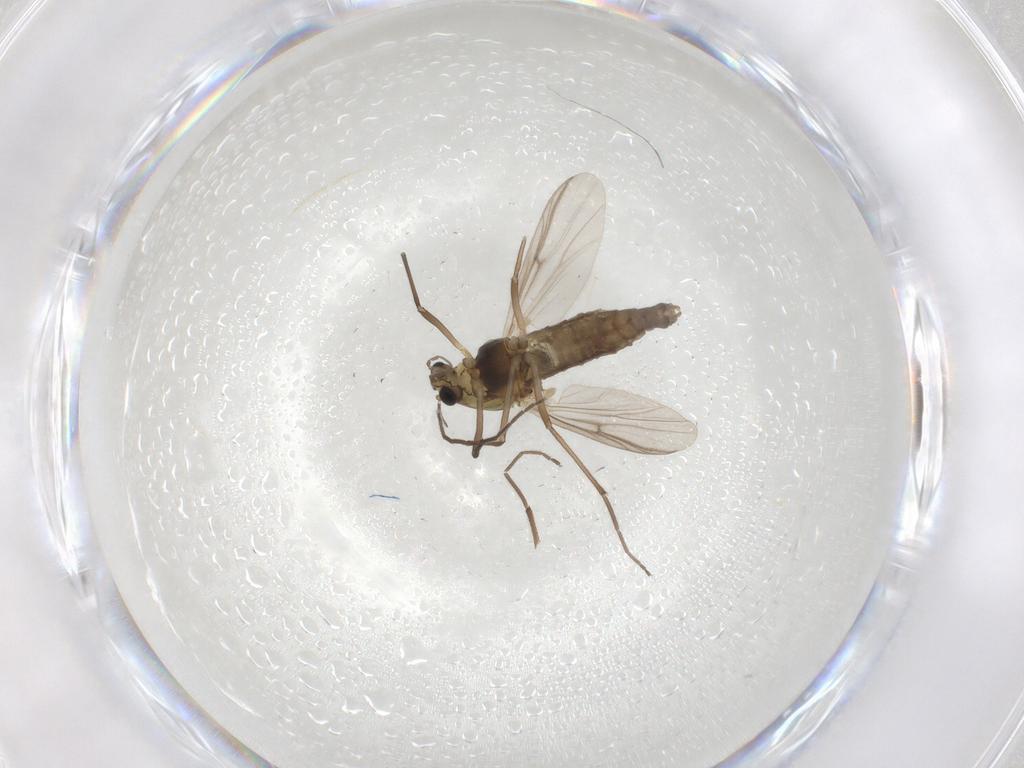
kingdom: Animalia
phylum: Arthropoda
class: Insecta
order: Diptera
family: Chironomidae
